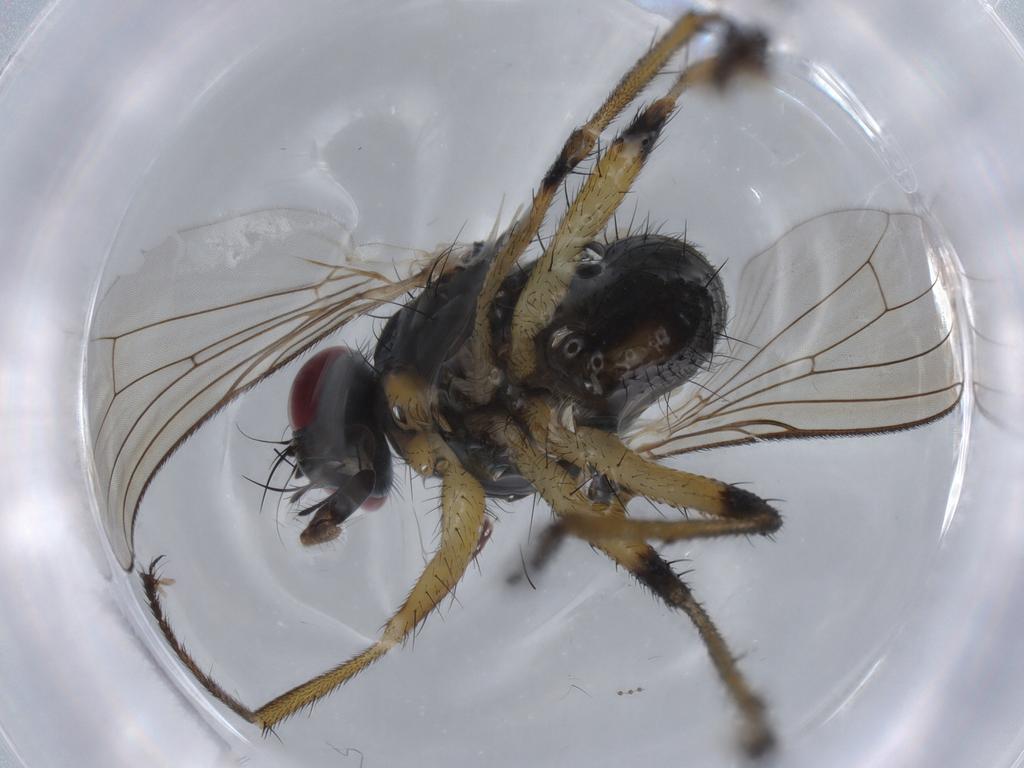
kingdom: Animalia
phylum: Arthropoda
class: Insecta
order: Diptera
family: Muscidae
